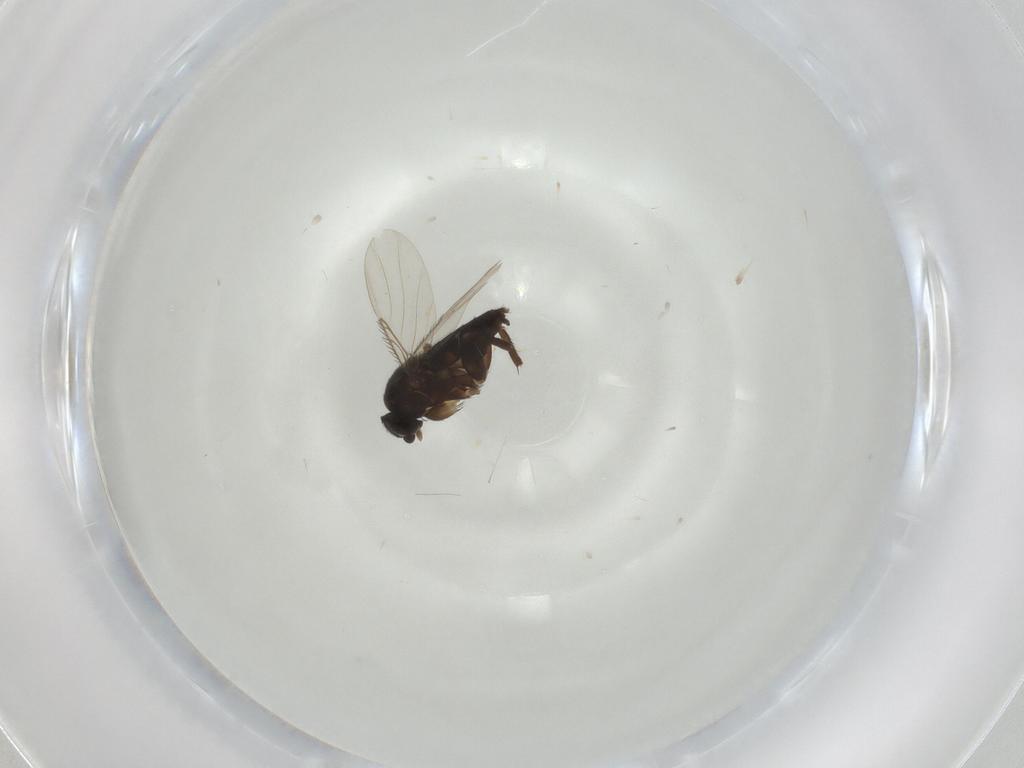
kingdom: Animalia
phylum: Arthropoda
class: Insecta
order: Diptera
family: Phoridae
